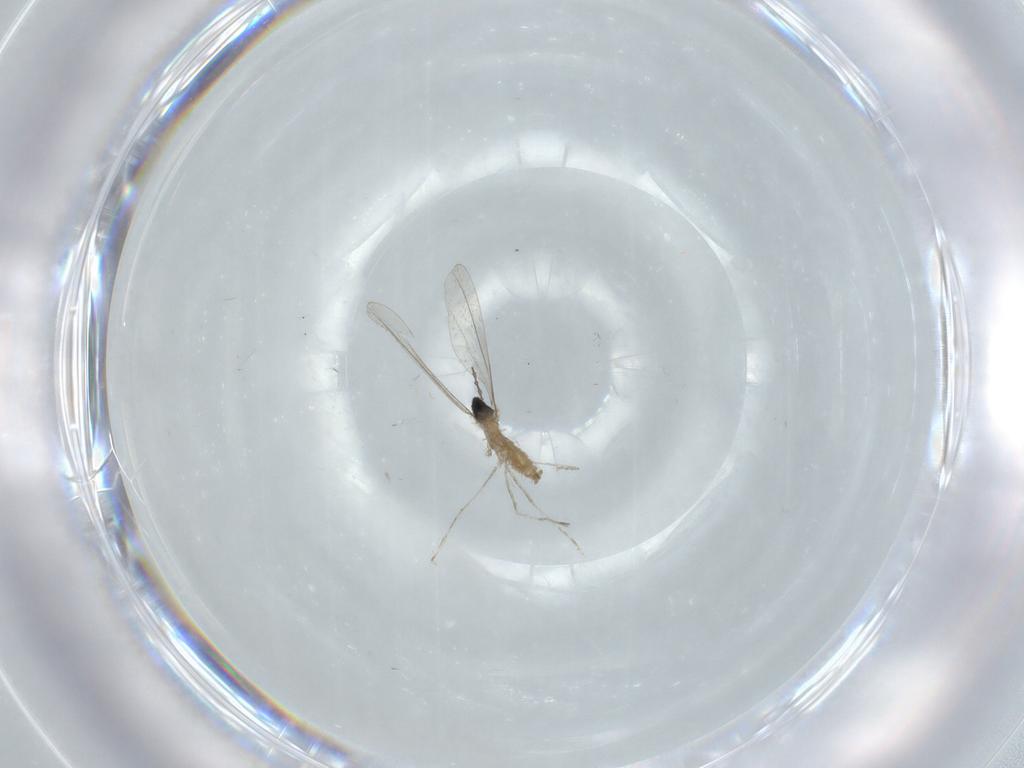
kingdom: Animalia
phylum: Arthropoda
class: Insecta
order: Diptera
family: Cecidomyiidae
